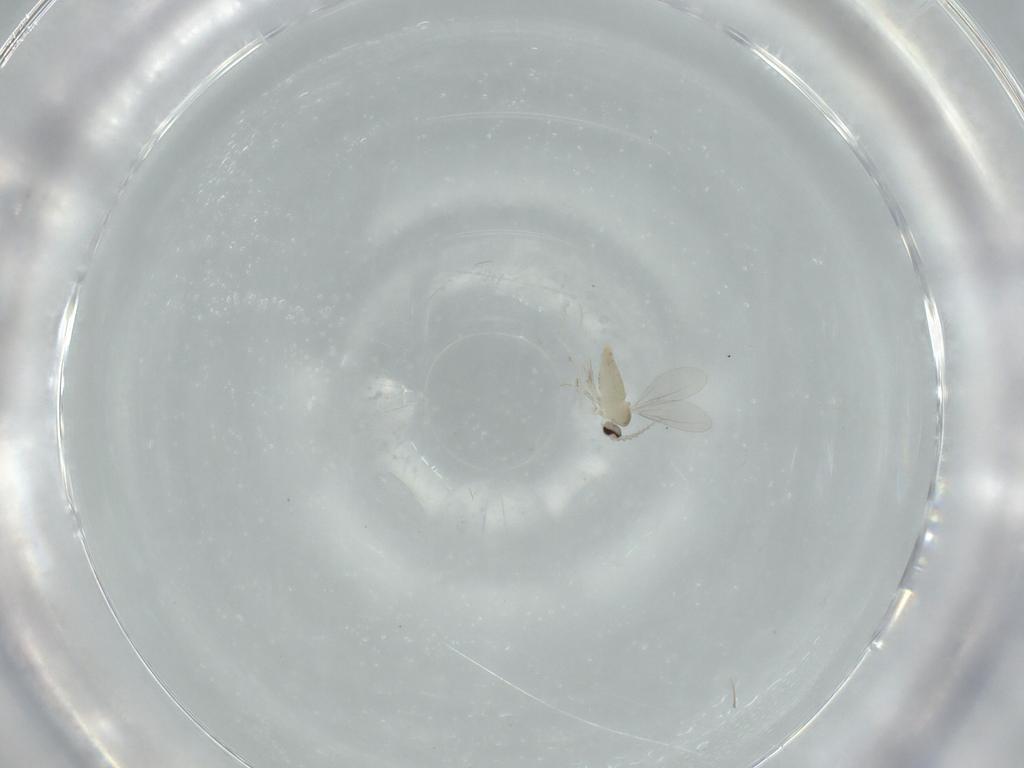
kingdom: Animalia
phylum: Arthropoda
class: Insecta
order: Diptera
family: Cecidomyiidae
